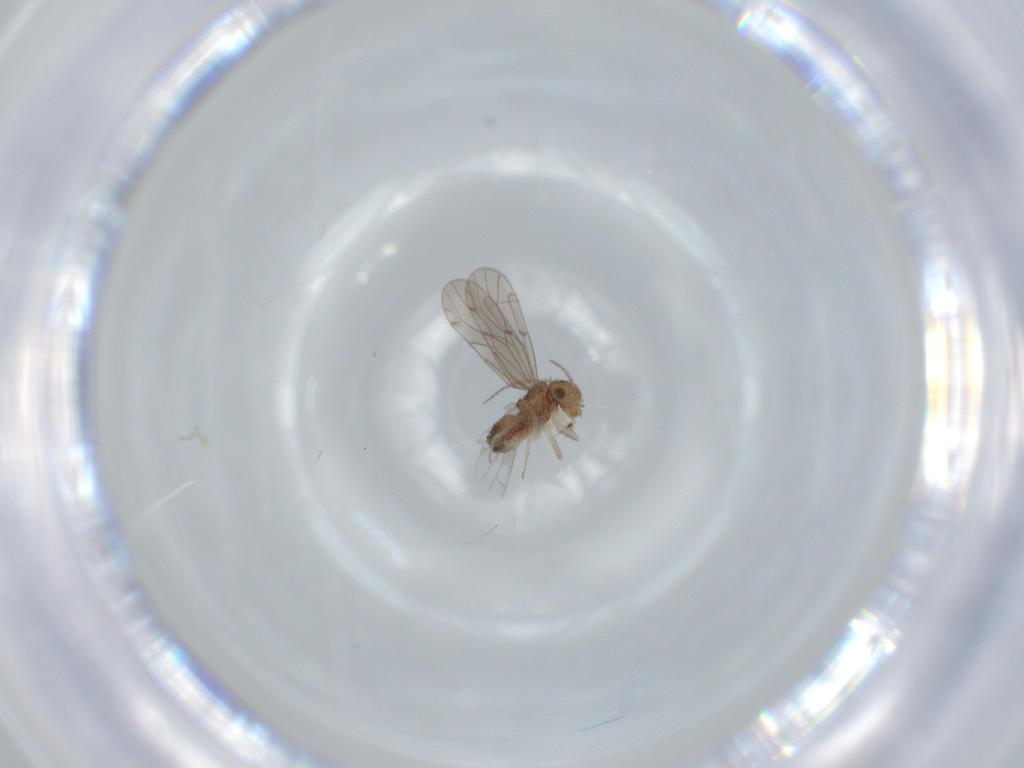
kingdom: Animalia
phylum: Arthropoda
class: Insecta
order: Psocodea
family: Ectopsocidae
